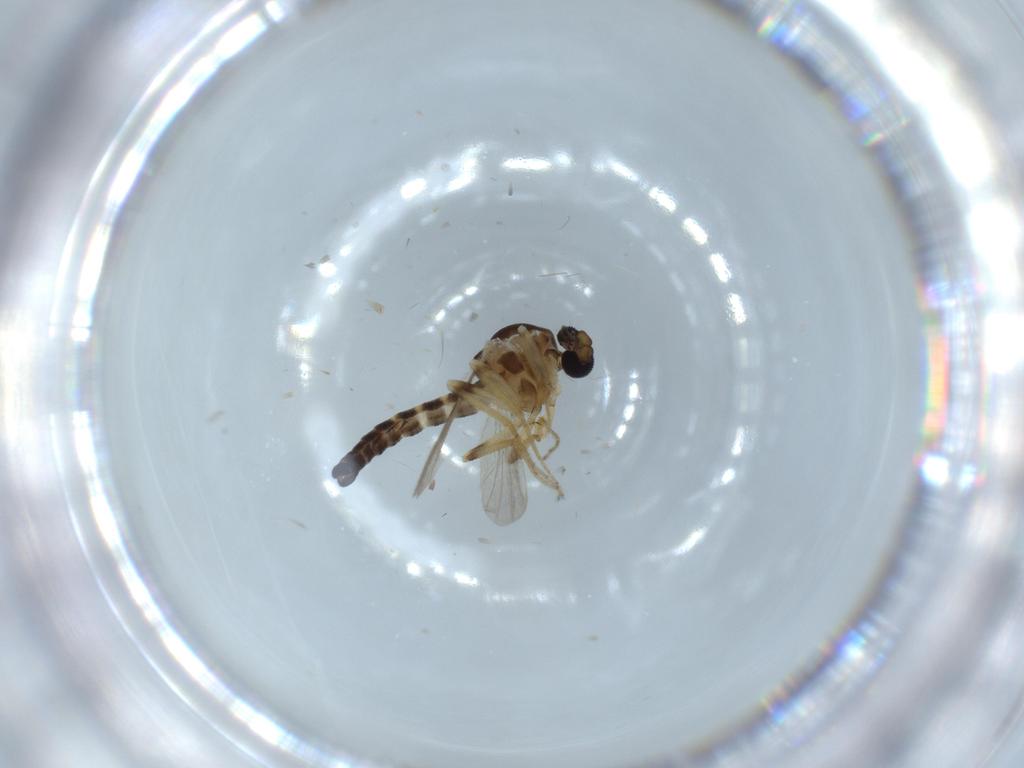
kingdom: Animalia
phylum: Arthropoda
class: Insecta
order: Diptera
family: Ceratopogonidae
